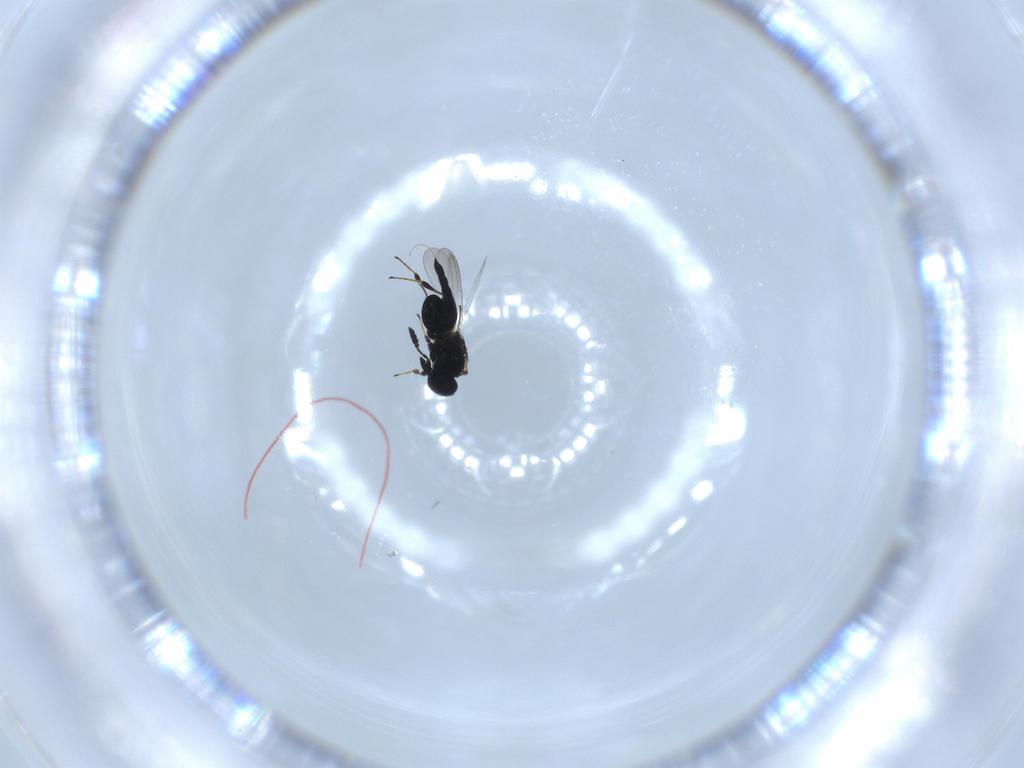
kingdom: Animalia
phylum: Arthropoda
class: Insecta
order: Hymenoptera
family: Platygastridae
